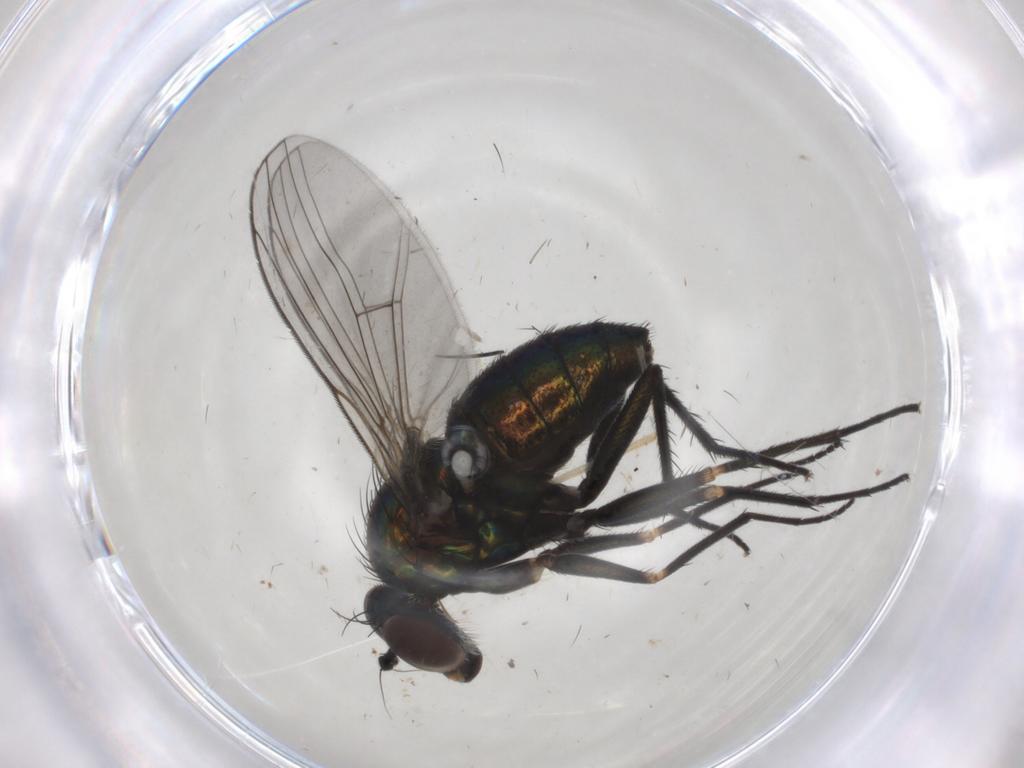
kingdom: Animalia
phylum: Arthropoda
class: Insecta
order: Diptera
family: Dolichopodidae
